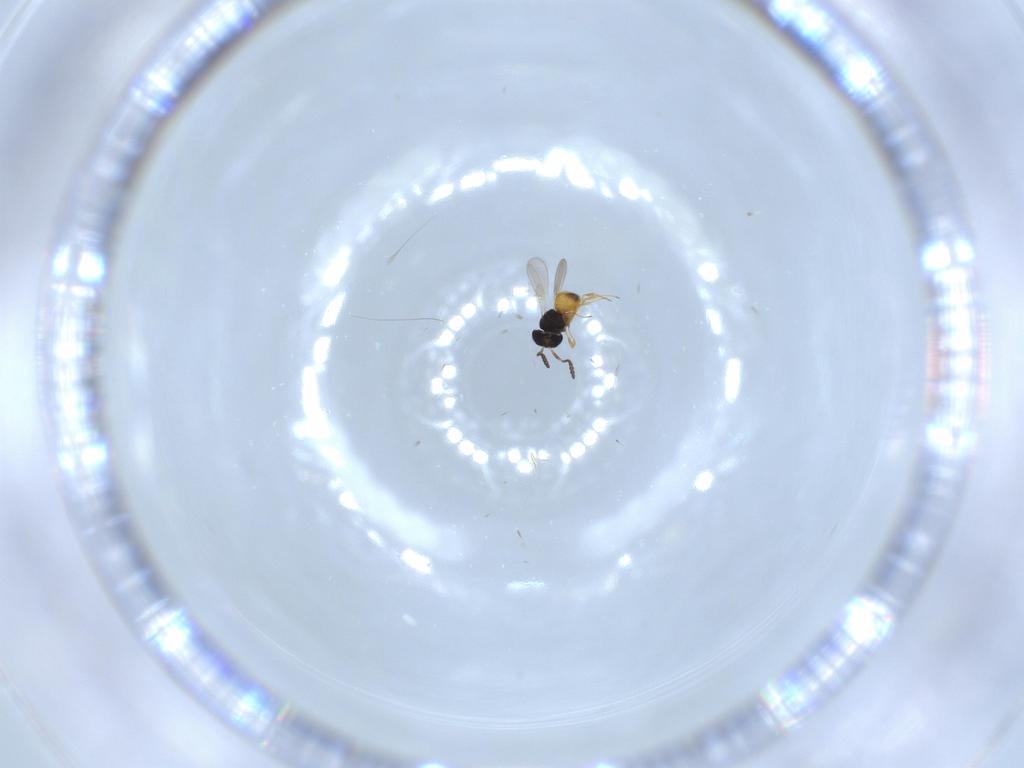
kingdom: Animalia
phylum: Arthropoda
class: Insecta
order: Hymenoptera
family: Scelionidae
